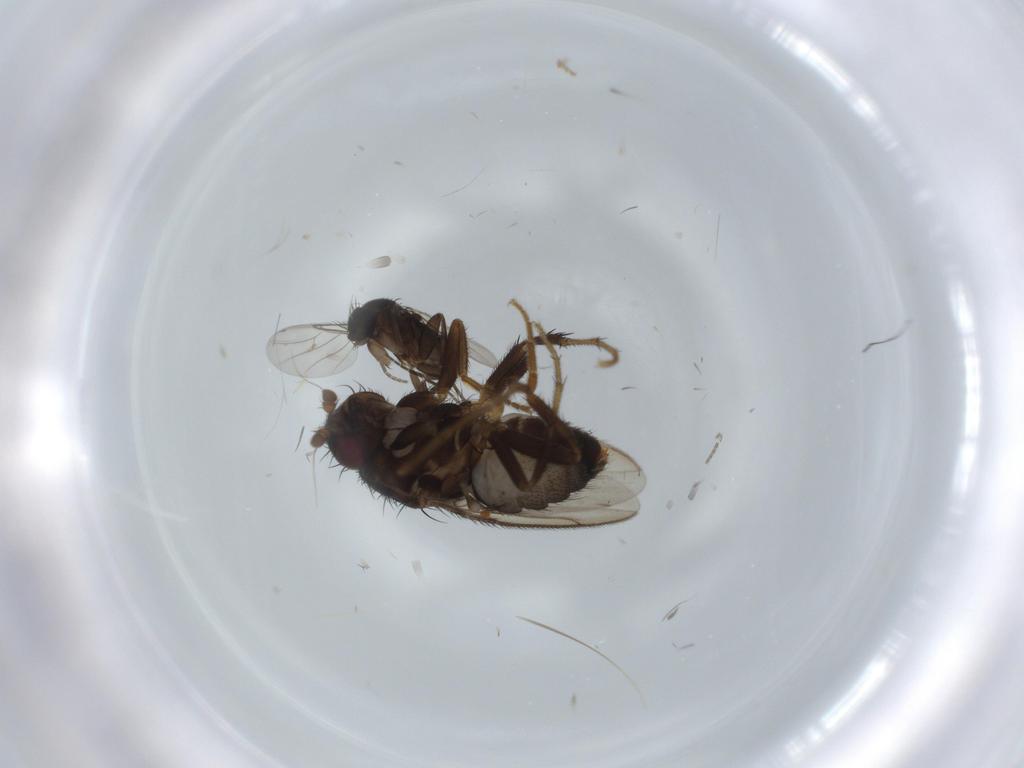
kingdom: Animalia
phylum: Arthropoda
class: Insecta
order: Diptera
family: Sphaeroceridae
